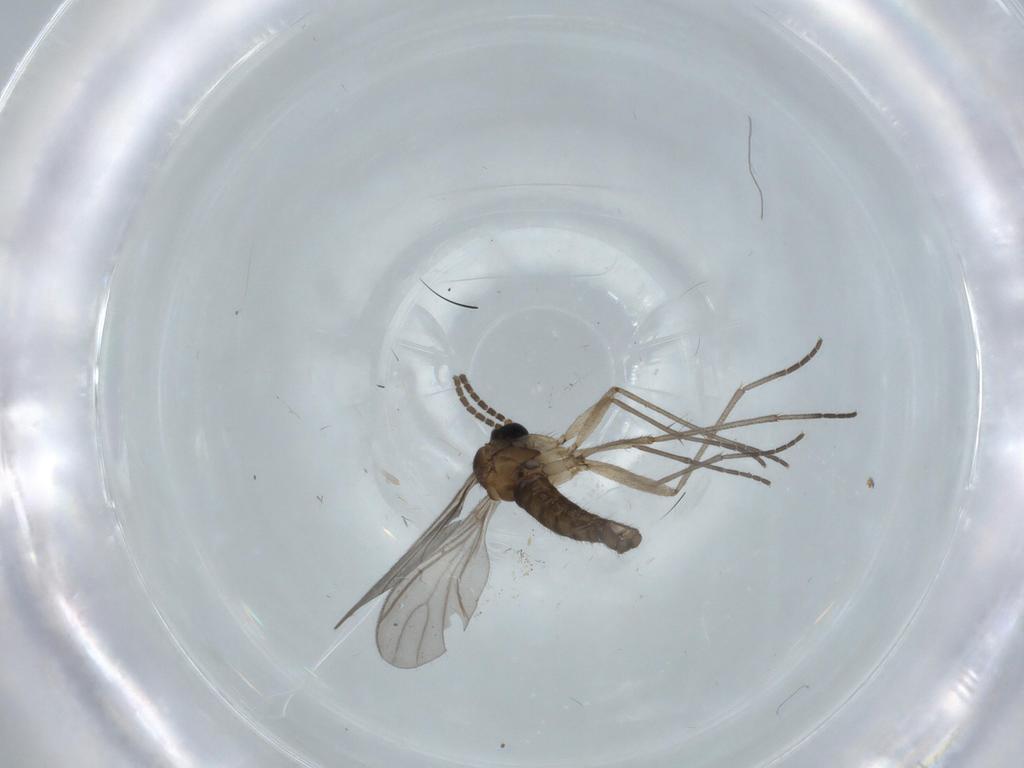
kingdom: Animalia
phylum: Arthropoda
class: Insecta
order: Diptera
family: Sciaridae
